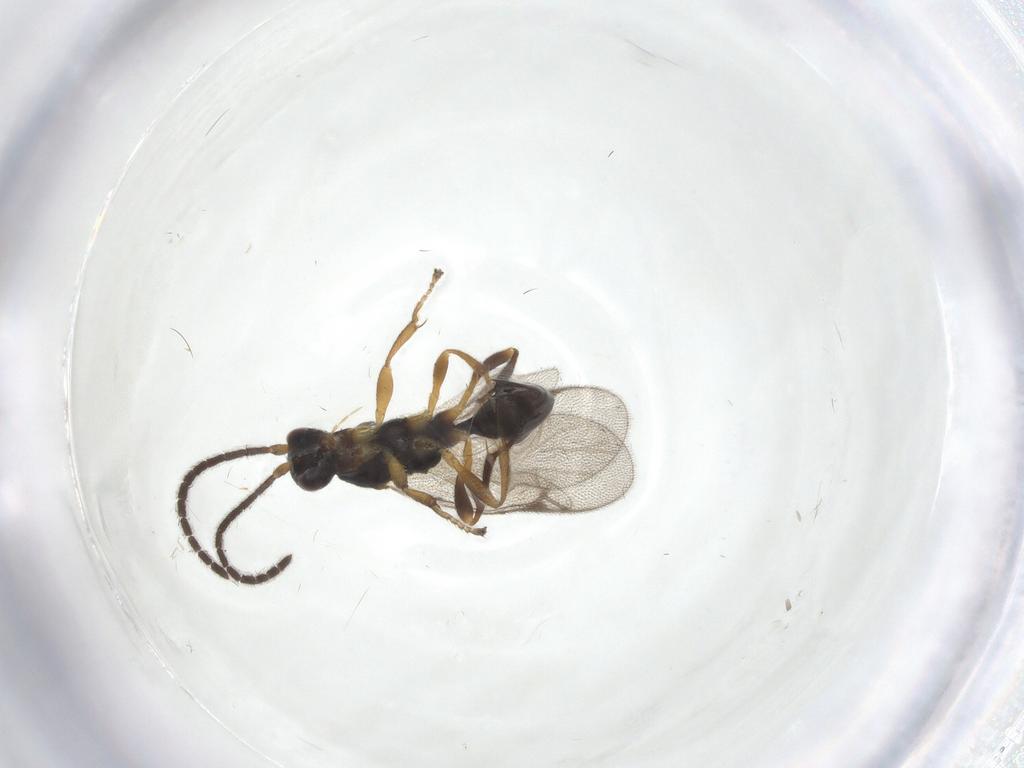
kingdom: Animalia
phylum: Arthropoda
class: Insecta
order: Hymenoptera
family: Proctotrupidae
